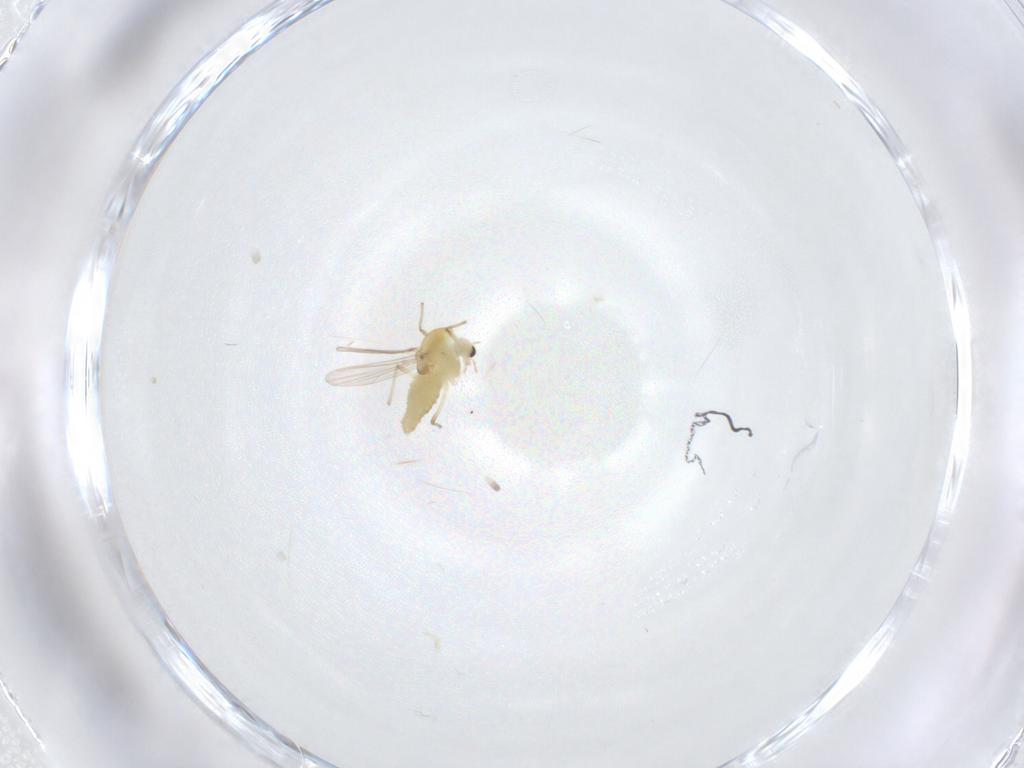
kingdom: Animalia
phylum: Arthropoda
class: Insecta
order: Diptera
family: Chironomidae
